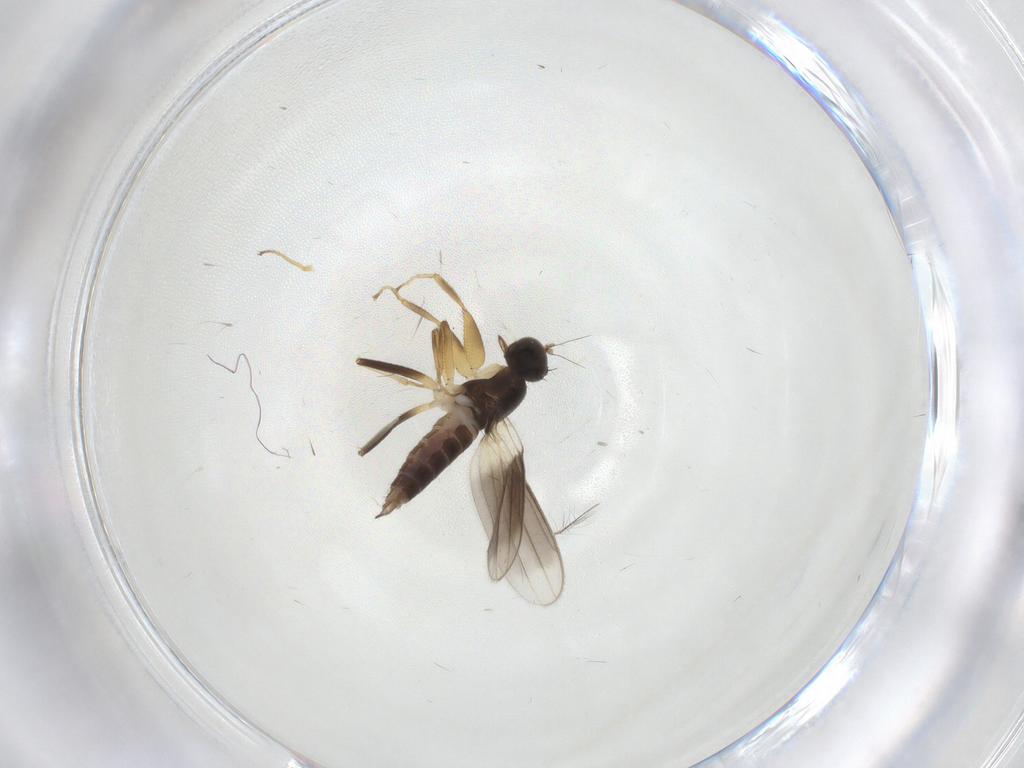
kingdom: Animalia
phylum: Arthropoda
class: Insecta
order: Diptera
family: Hybotidae
